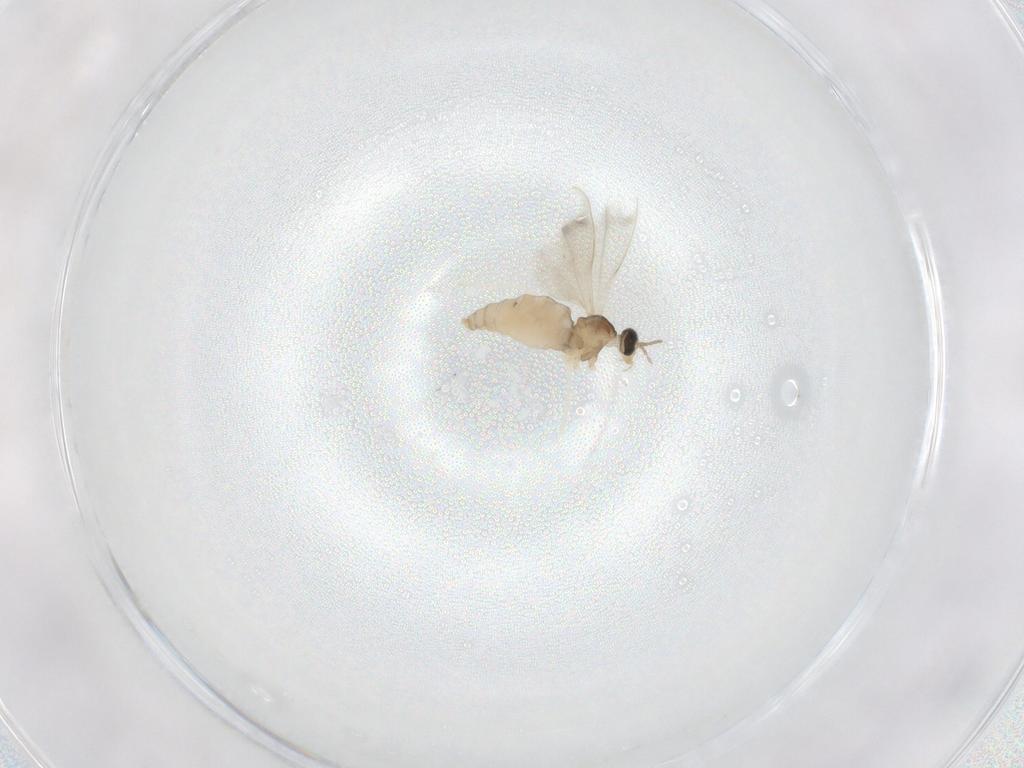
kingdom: Animalia
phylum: Arthropoda
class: Insecta
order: Diptera
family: Cecidomyiidae
